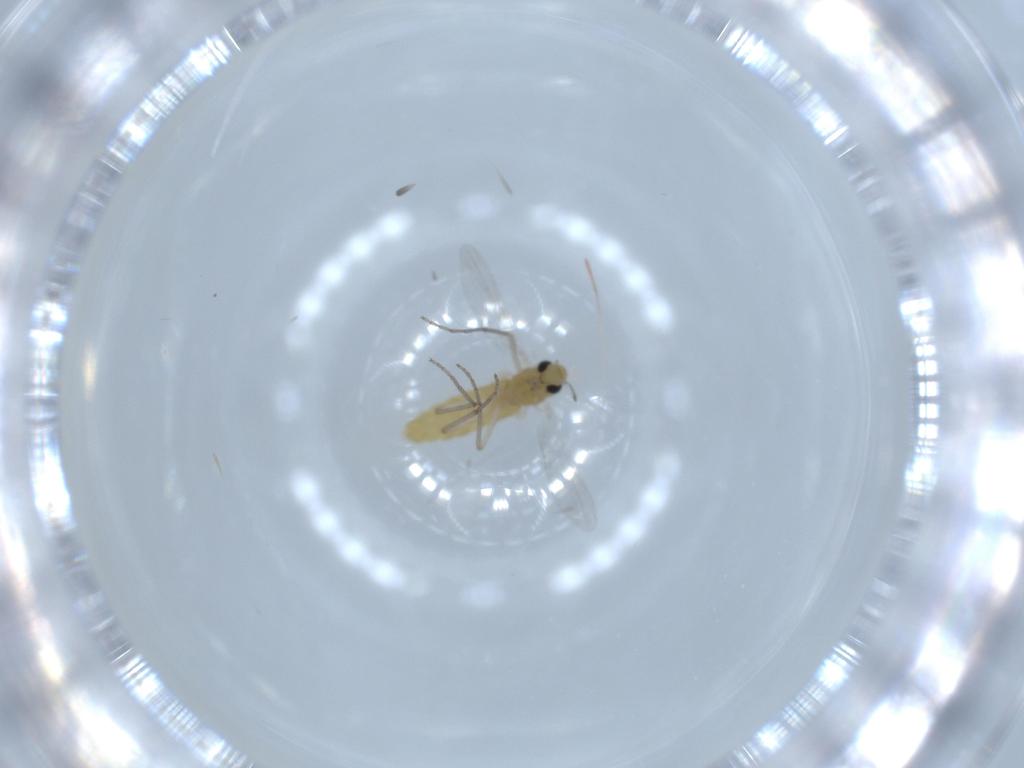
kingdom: Animalia
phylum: Arthropoda
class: Insecta
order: Diptera
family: Chironomidae
